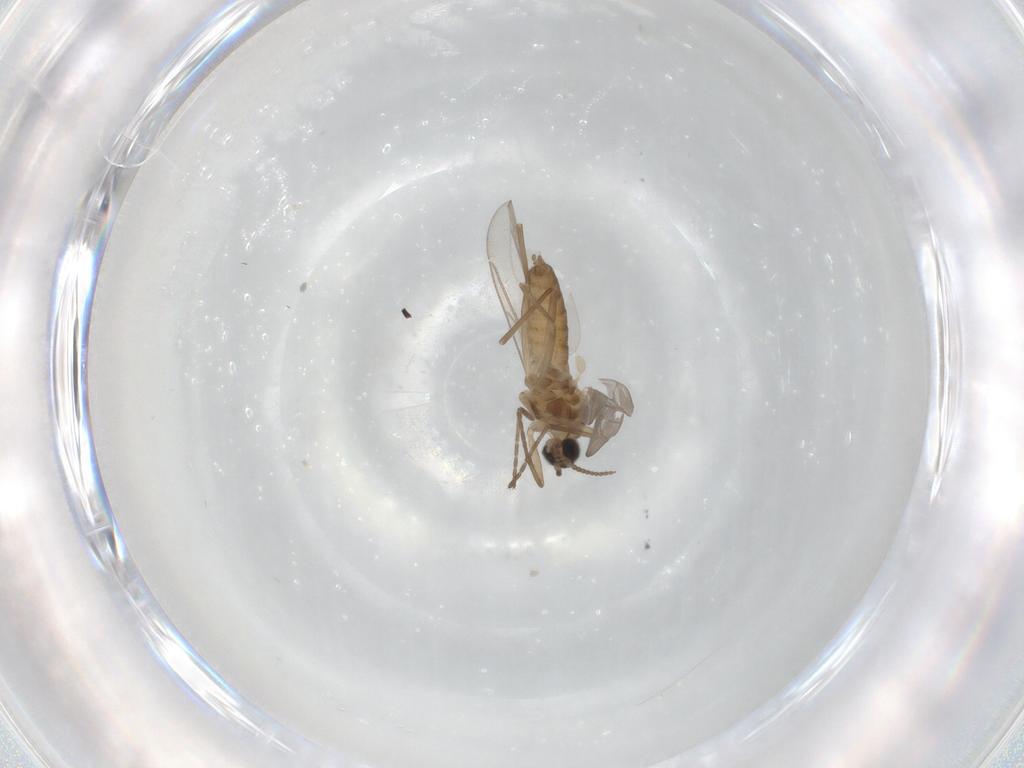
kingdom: Animalia
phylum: Arthropoda
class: Insecta
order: Diptera
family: Cecidomyiidae
